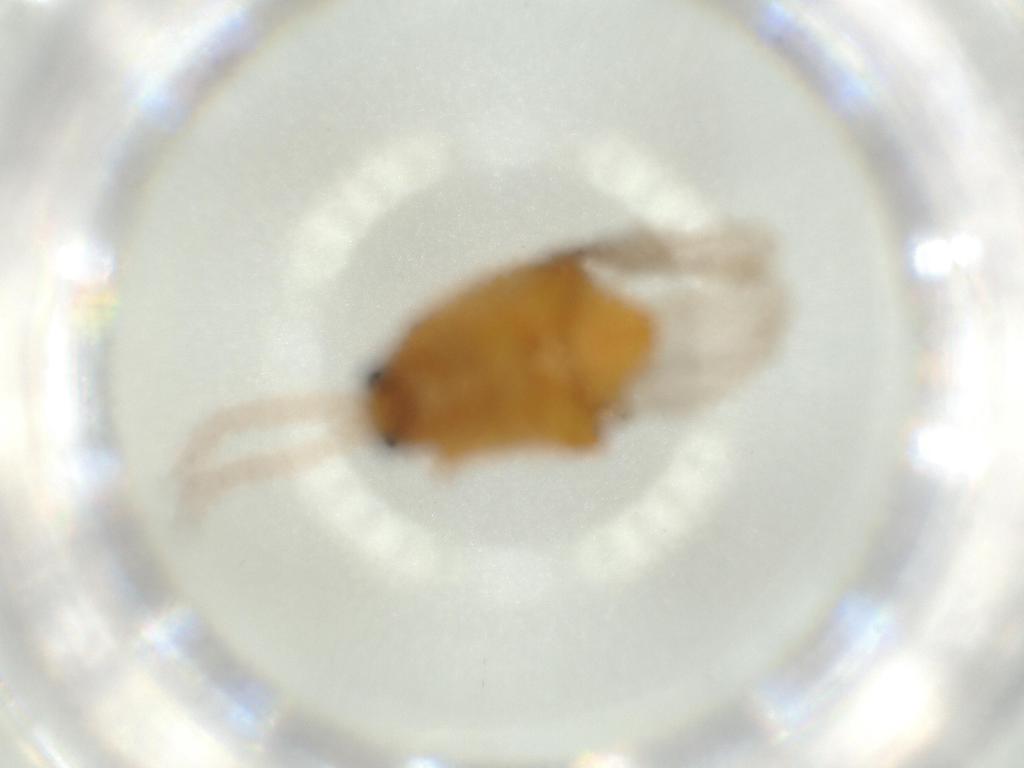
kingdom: Animalia
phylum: Arthropoda
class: Insecta
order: Coleoptera
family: Chrysomelidae
